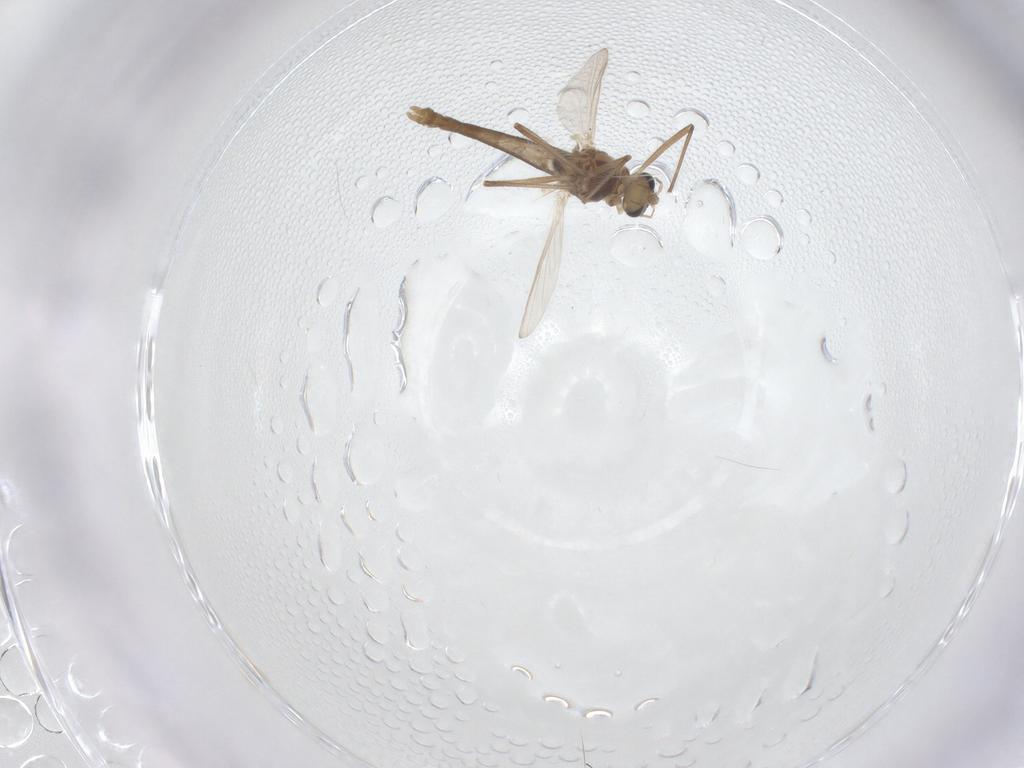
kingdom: Animalia
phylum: Arthropoda
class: Insecta
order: Diptera
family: Chironomidae
